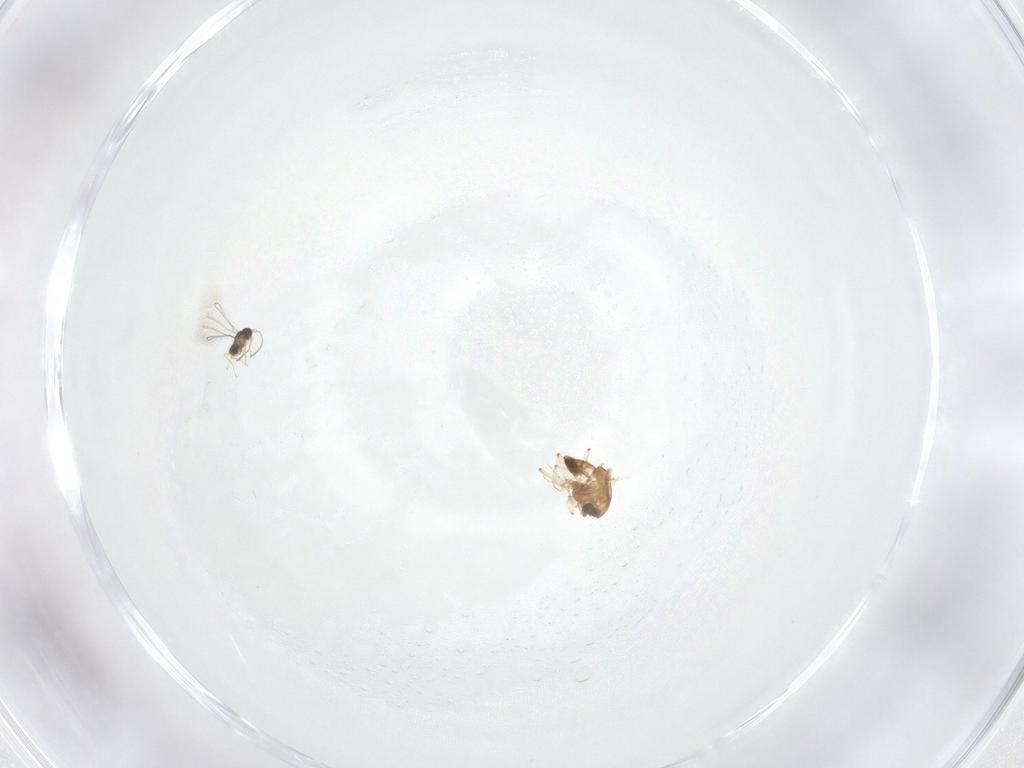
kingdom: Animalia
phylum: Arthropoda
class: Insecta
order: Diptera
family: Chironomidae
